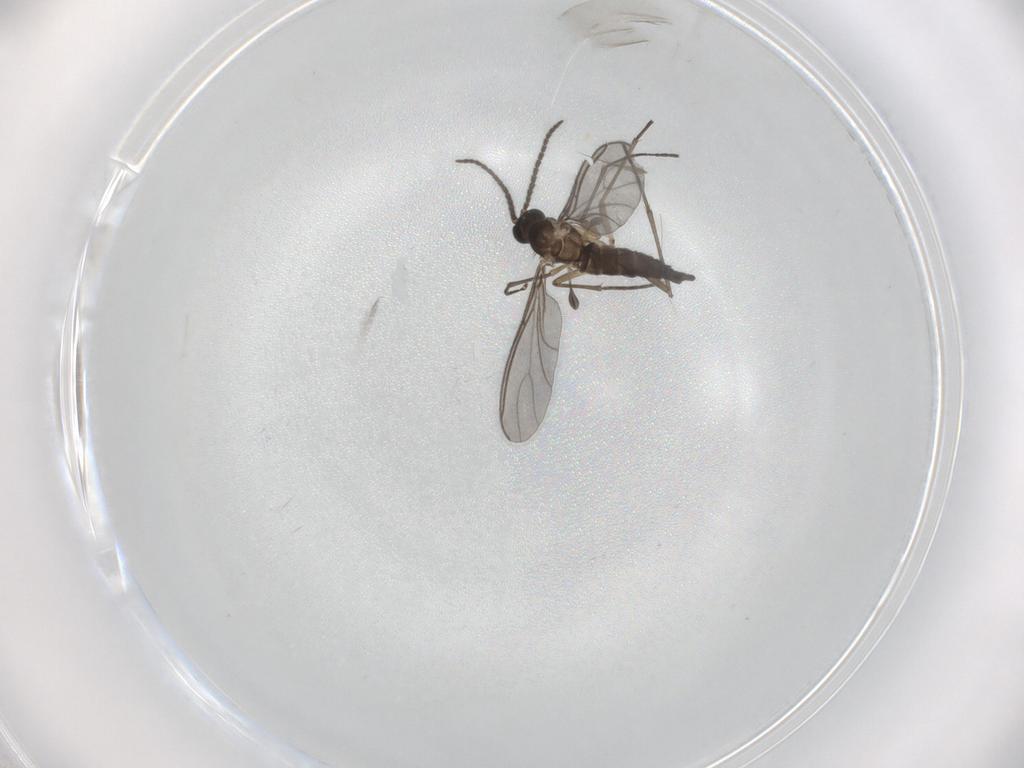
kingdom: Animalia
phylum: Arthropoda
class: Insecta
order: Diptera
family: Sciaridae
